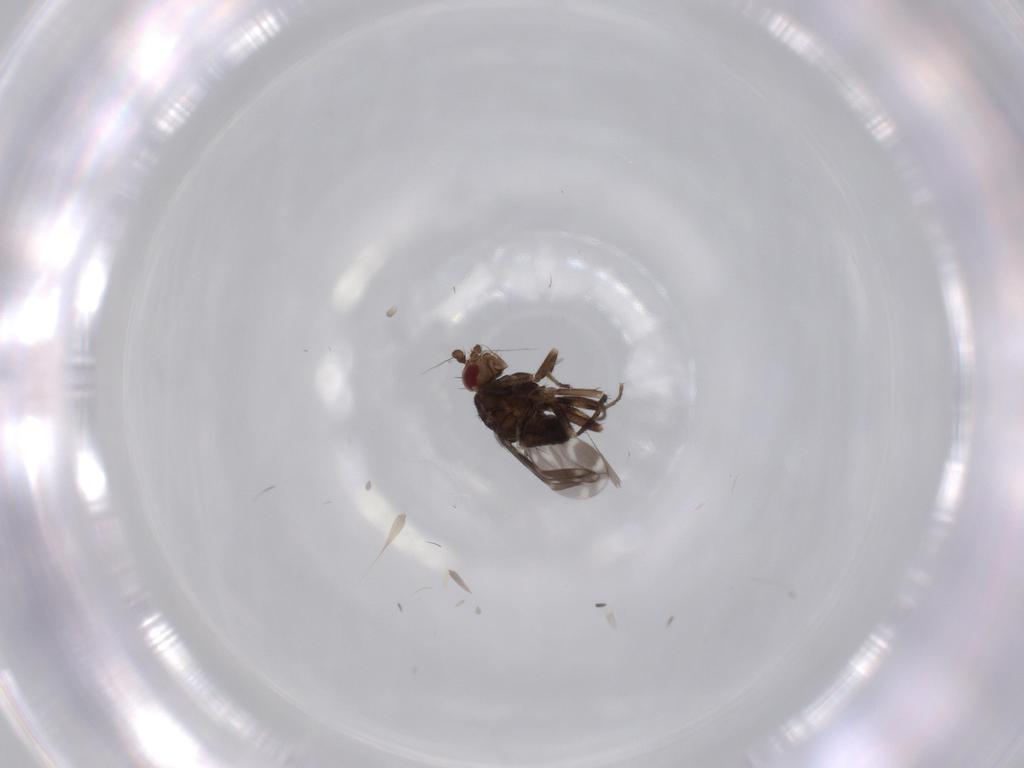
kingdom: Animalia
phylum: Arthropoda
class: Insecta
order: Diptera
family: Sphaeroceridae
